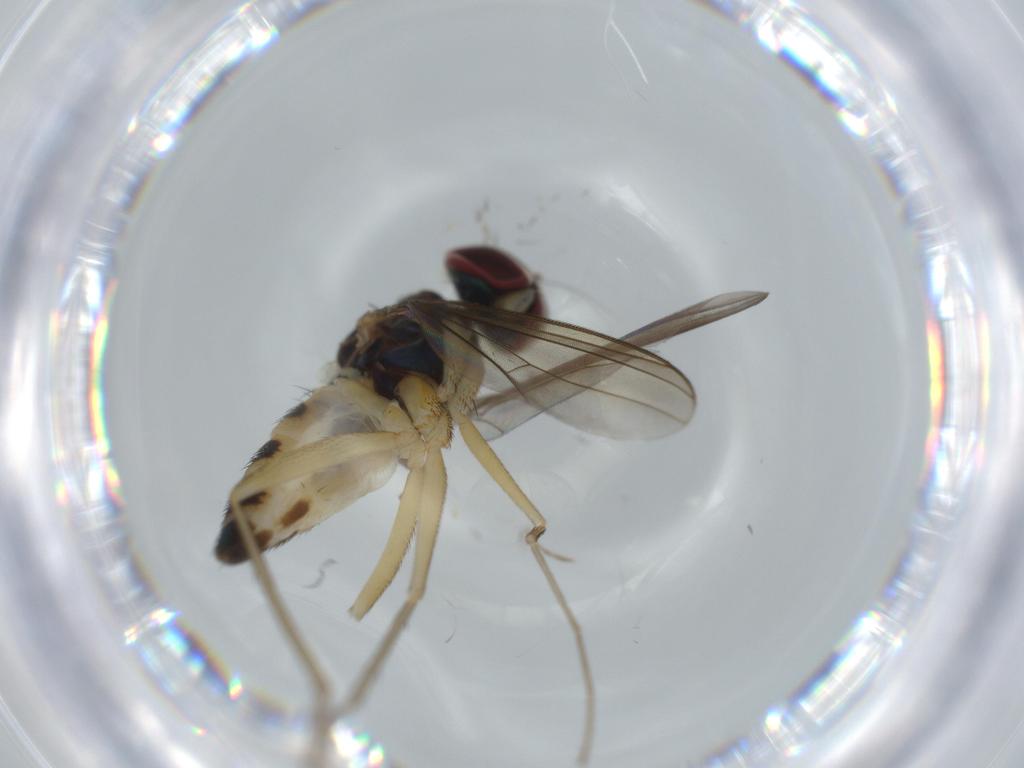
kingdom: Animalia
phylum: Arthropoda
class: Insecta
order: Diptera
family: Dolichopodidae
